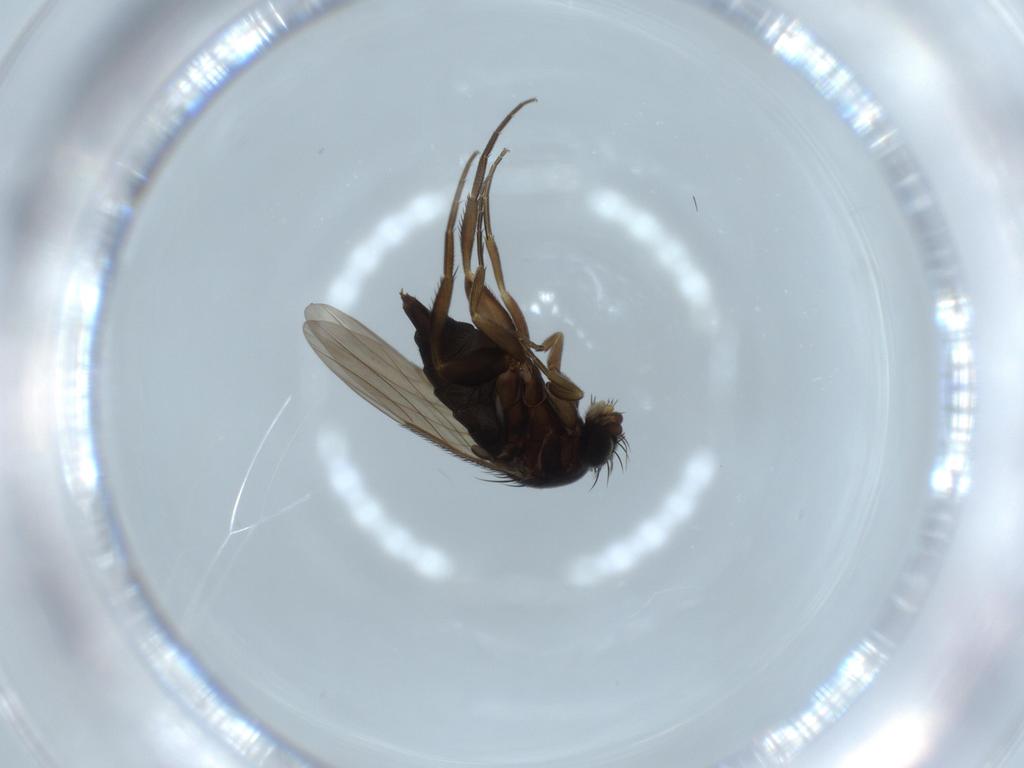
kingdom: Animalia
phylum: Arthropoda
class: Insecta
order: Diptera
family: Phoridae
